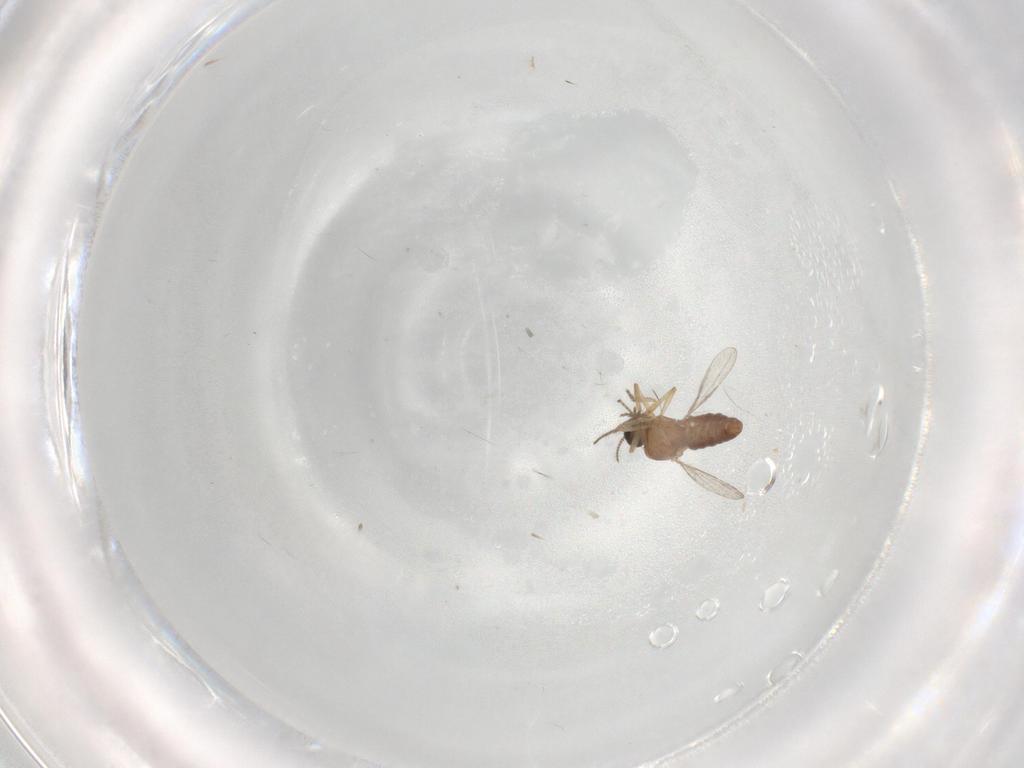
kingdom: Animalia
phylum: Arthropoda
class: Insecta
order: Diptera
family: Ceratopogonidae
